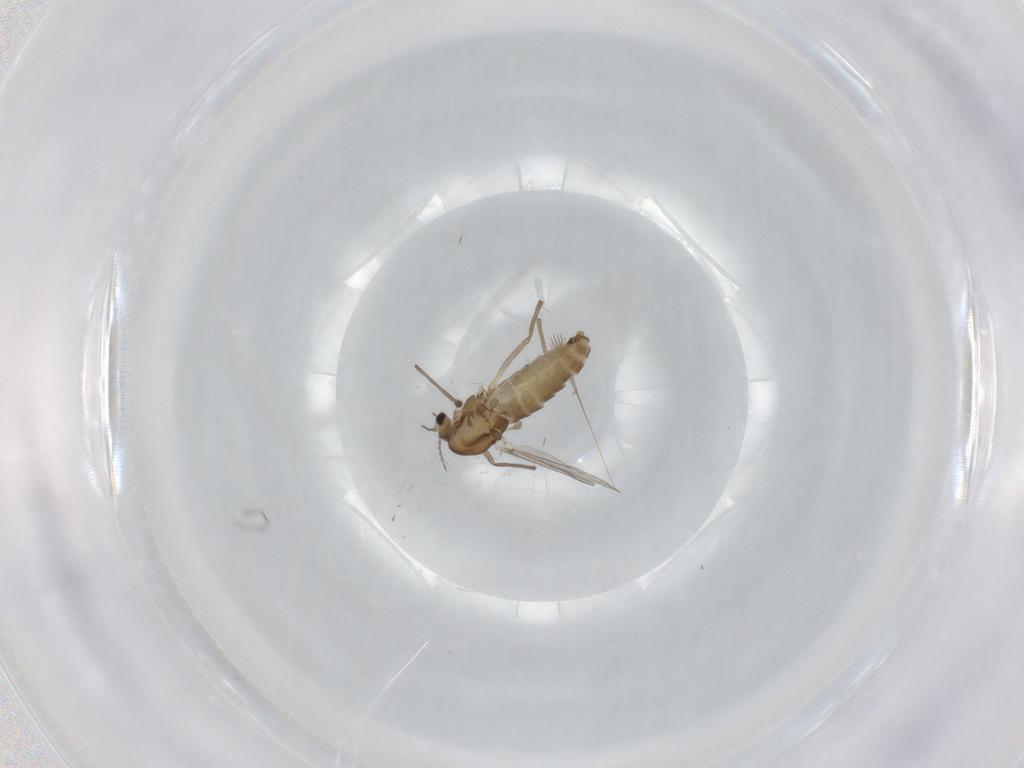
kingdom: Animalia
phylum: Arthropoda
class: Insecta
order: Diptera
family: Chironomidae
